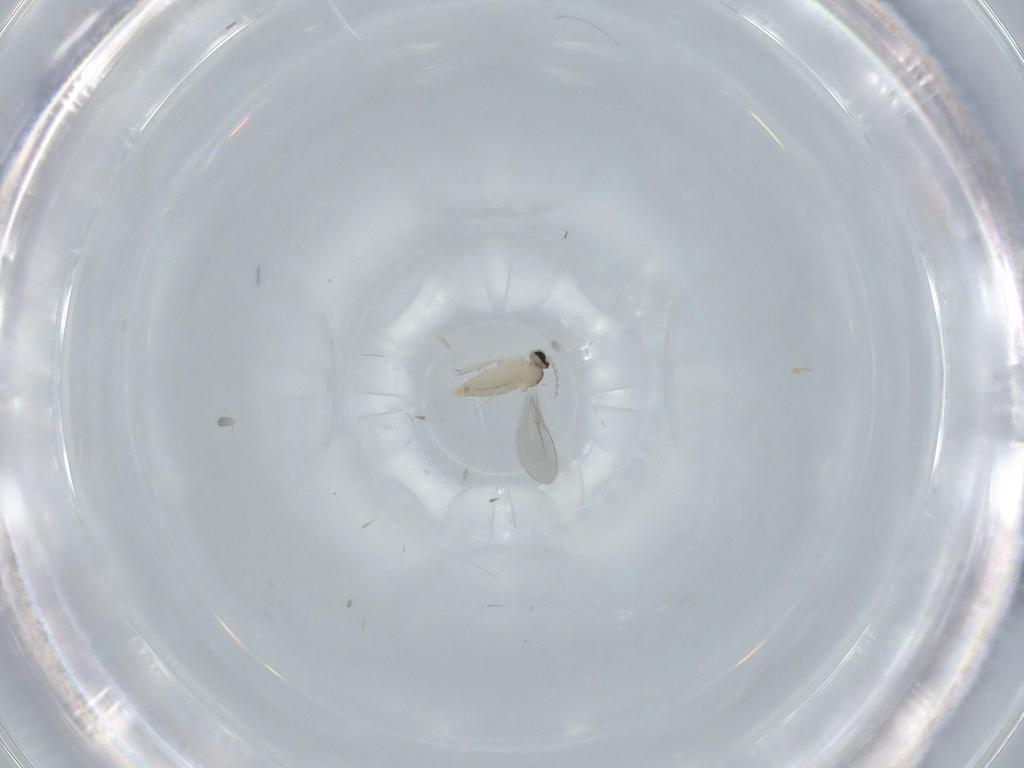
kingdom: Animalia
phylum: Arthropoda
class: Insecta
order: Diptera
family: Cecidomyiidae
